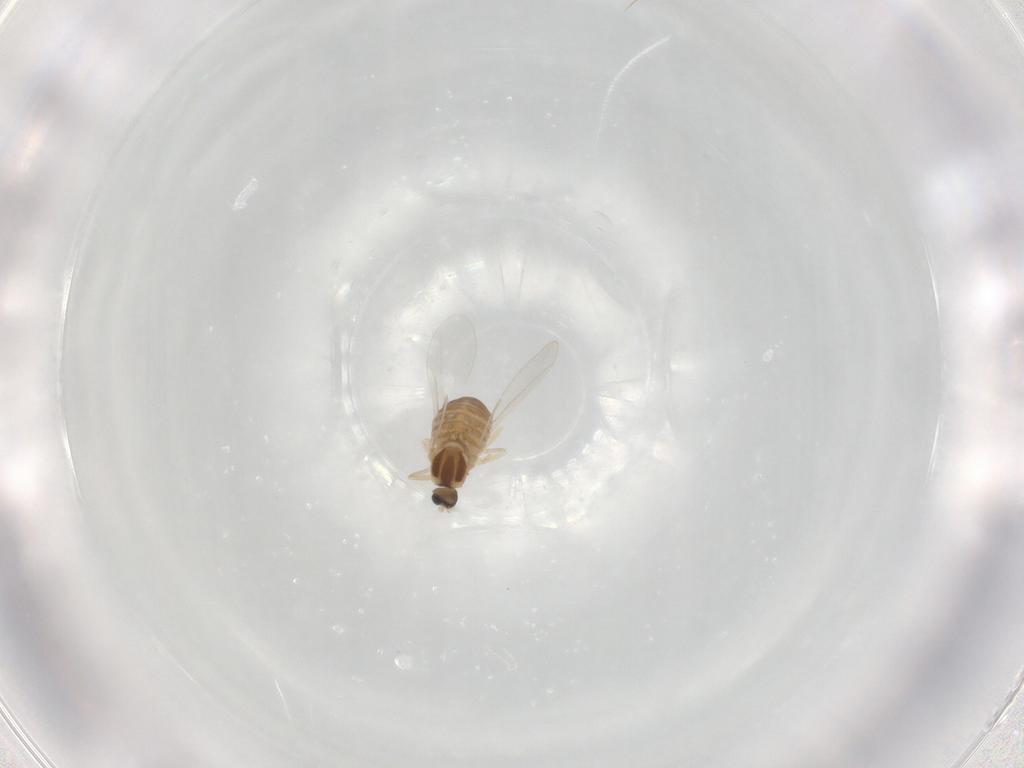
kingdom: Animalia
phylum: Arthropoda
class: Insecta
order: Diptera
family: Cecidomyiidae
